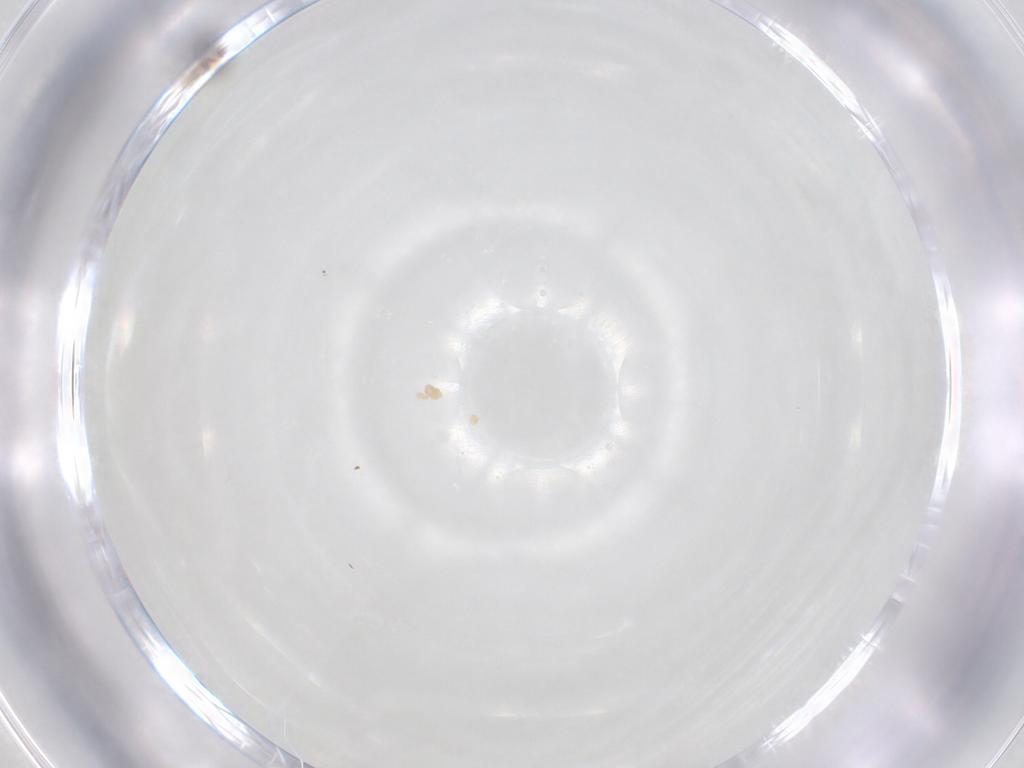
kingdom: Animalia
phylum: Arthropoda
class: Insecta
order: Diptera
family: Cecidomyiidae
